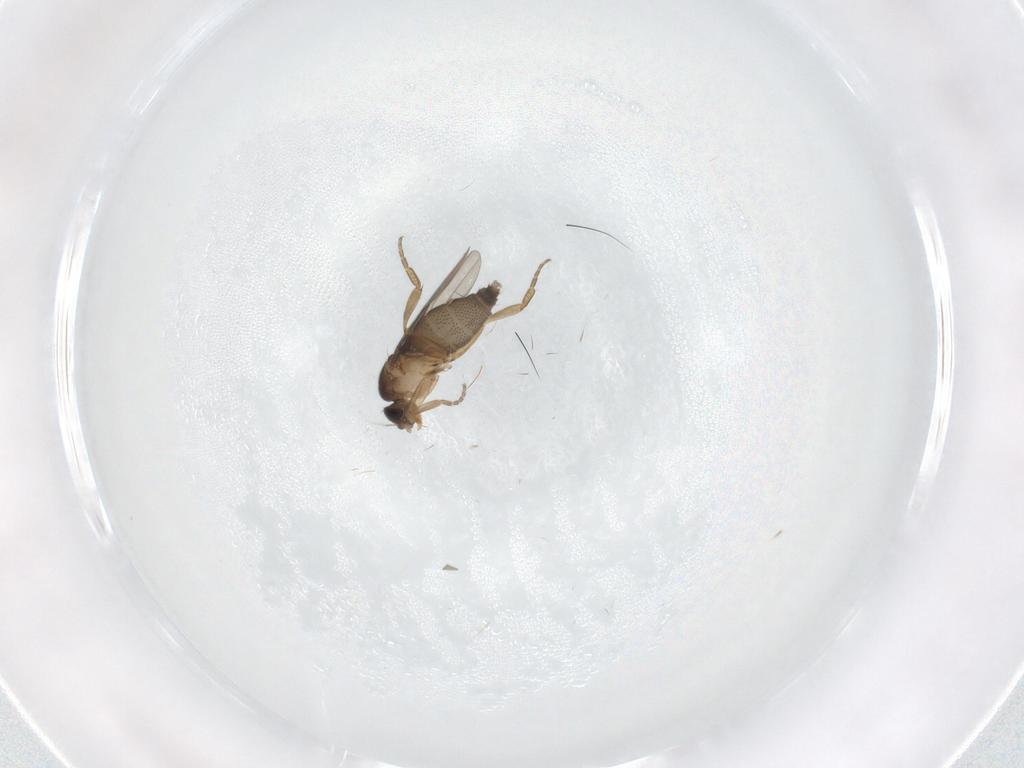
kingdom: Animalia
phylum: Arthropoda
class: Insecta
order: Diptera
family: Phoridae
